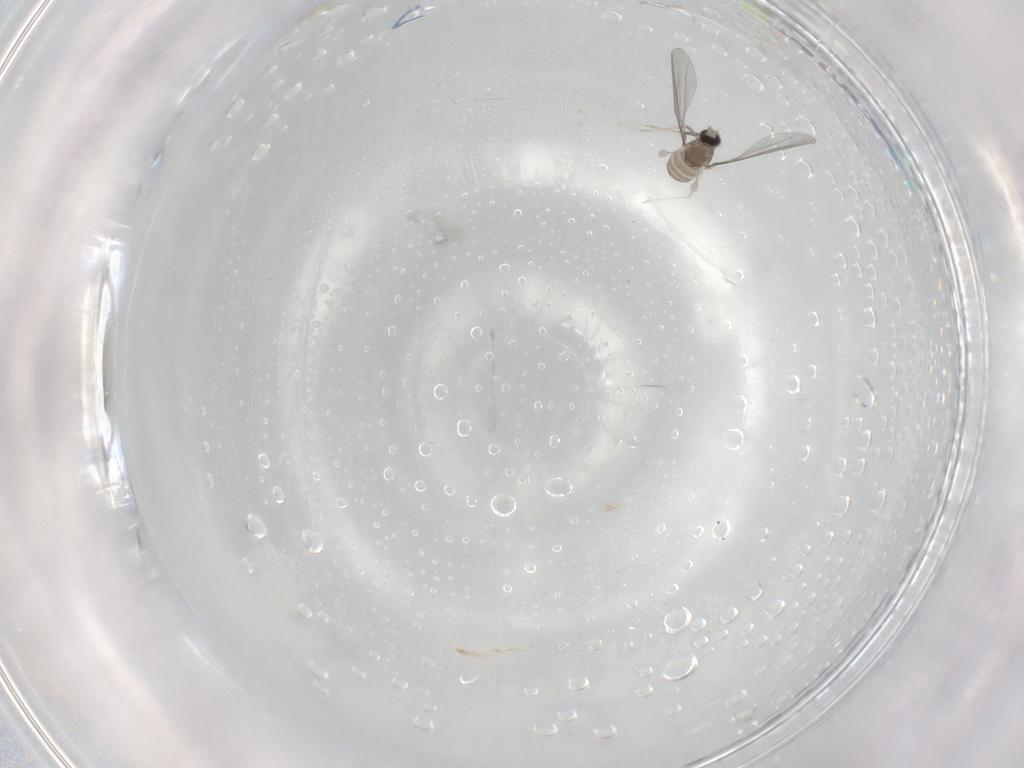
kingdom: Animalia
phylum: Arthropoda
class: Insecta
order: Diptera
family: Cecidomyiidae
